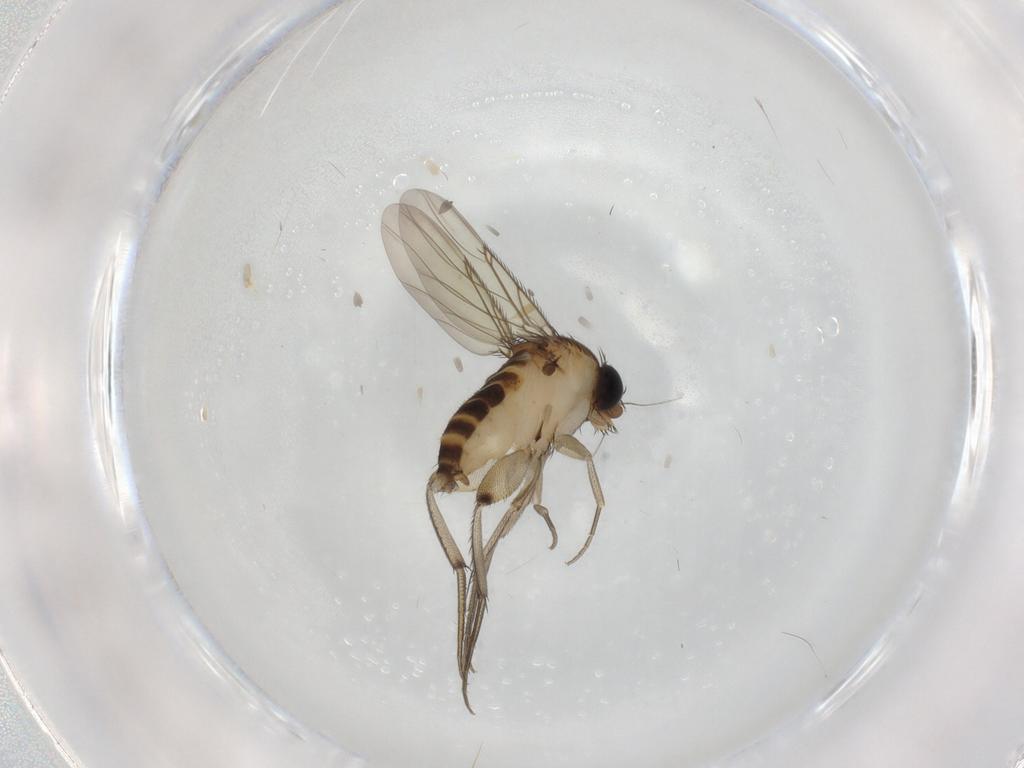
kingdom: Animalia
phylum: Arthropoda
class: Insecta
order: Diptera
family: Phoridae
